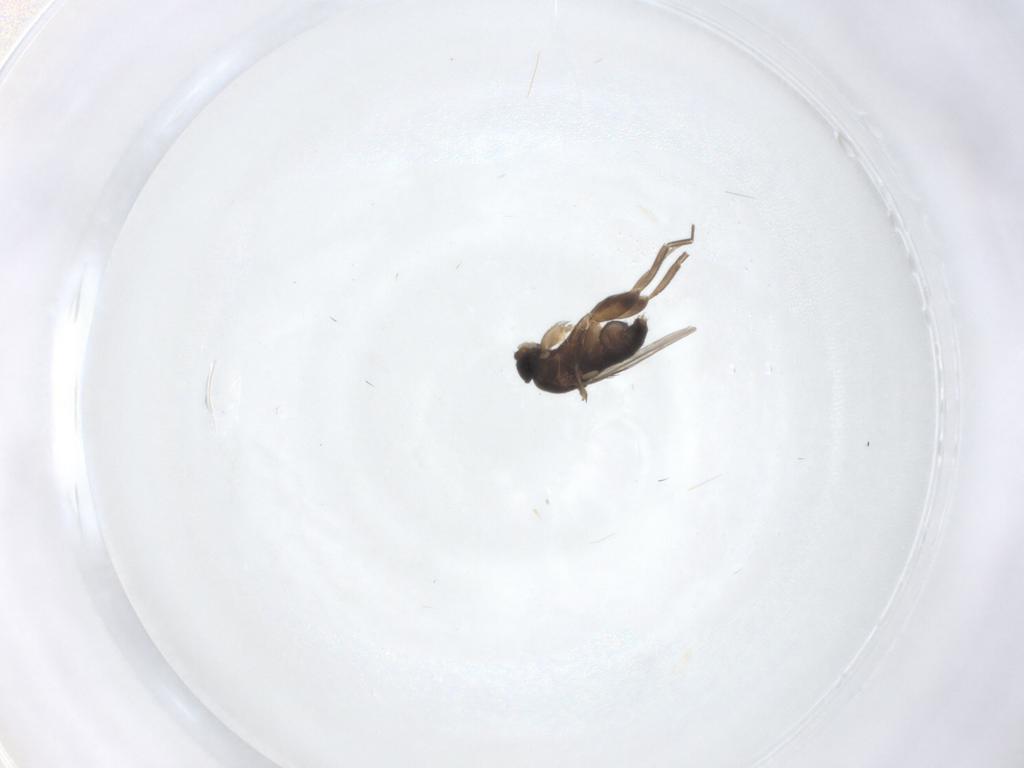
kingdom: Animalia
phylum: Arthropoda
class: Insecta
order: Diptera
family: Phoridae
